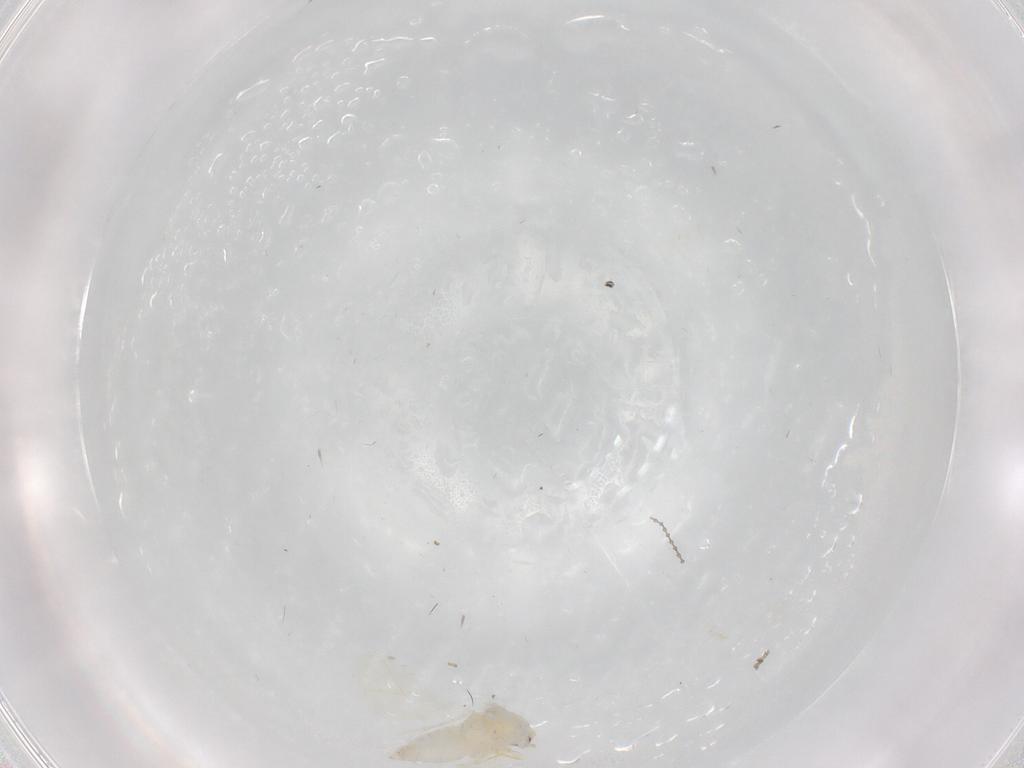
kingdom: Animalia
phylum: Arthropoda
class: Insecta
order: Hemiptera
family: Aleyrodidae
